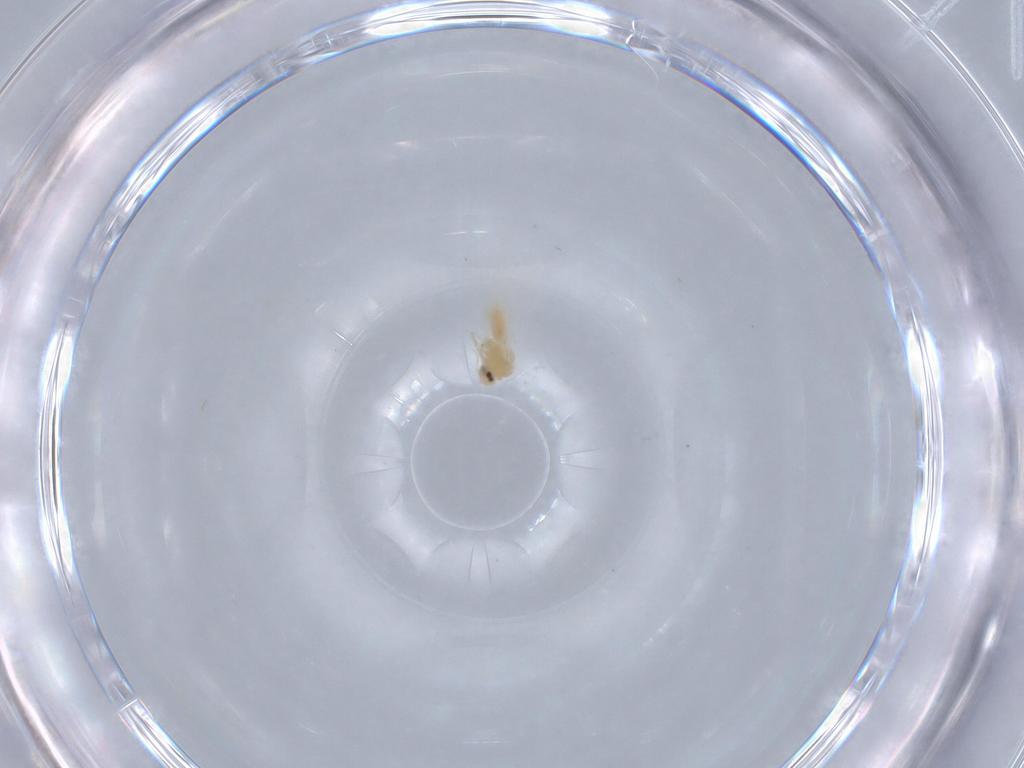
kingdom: Animalia
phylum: Arthropoda
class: Insecta
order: Hemiptera
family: Aleyrodidae
